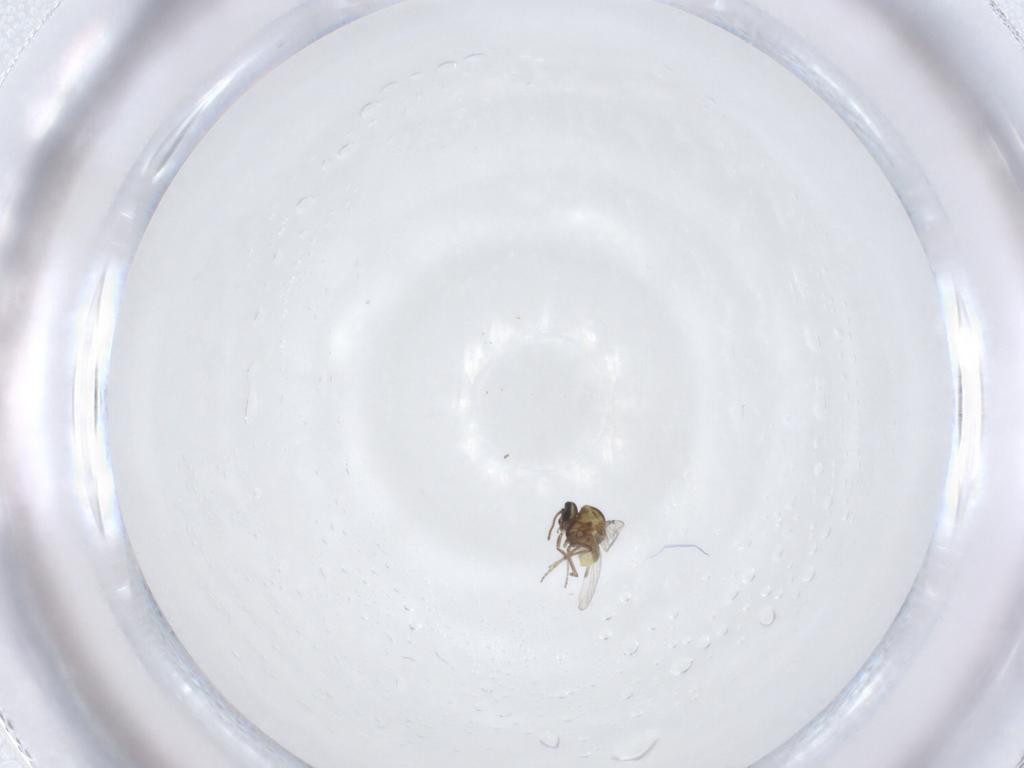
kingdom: Animalia
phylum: Arthropoda
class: Insecta
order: Diptera
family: Ceratopogonidae
